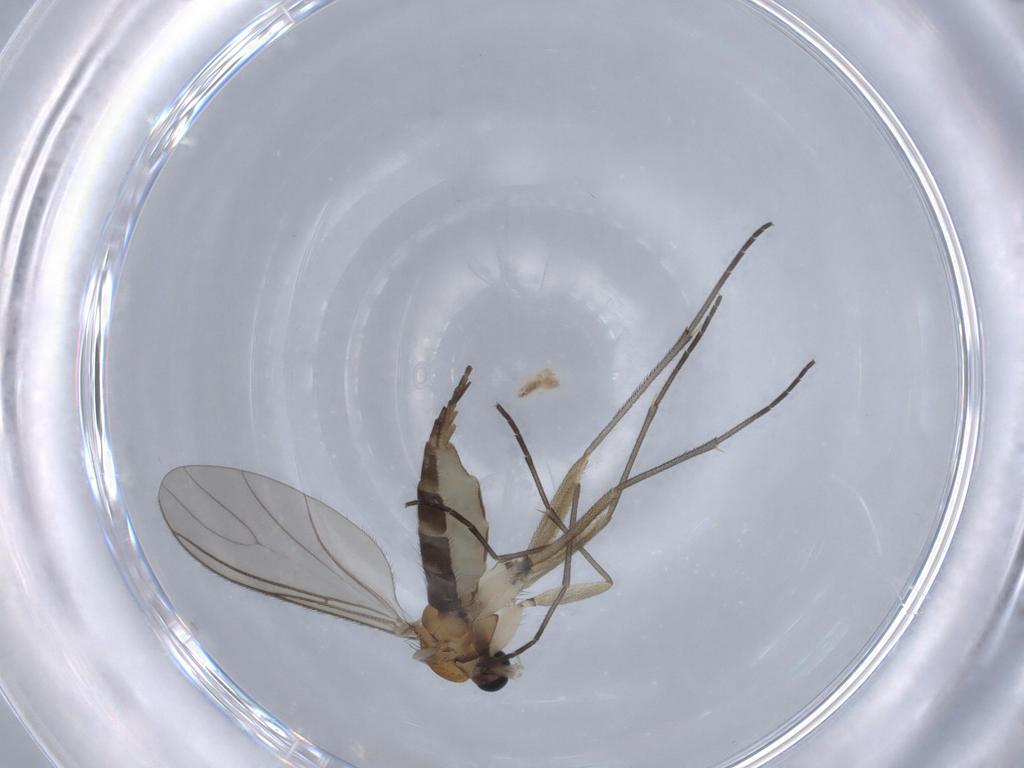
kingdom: Animalia
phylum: Arthropoda
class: Insecta
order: Diptera
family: Sciaridae
